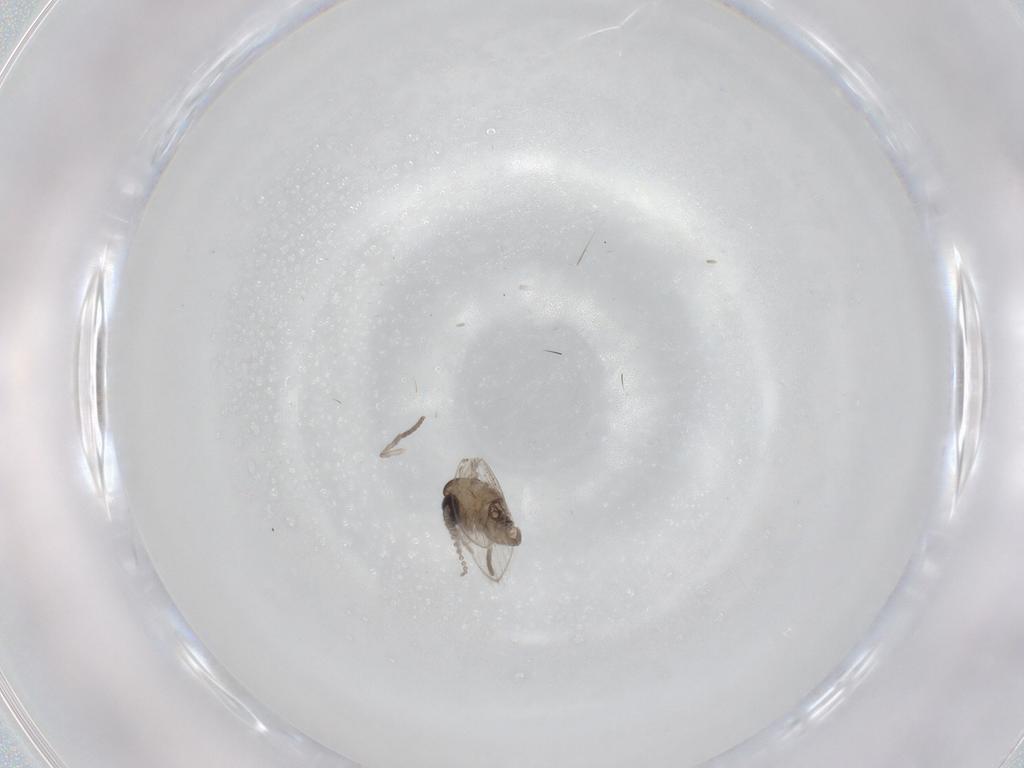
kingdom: Animalia
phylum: Arthropoda
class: Insecta
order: Diptera
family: Psychodidae
